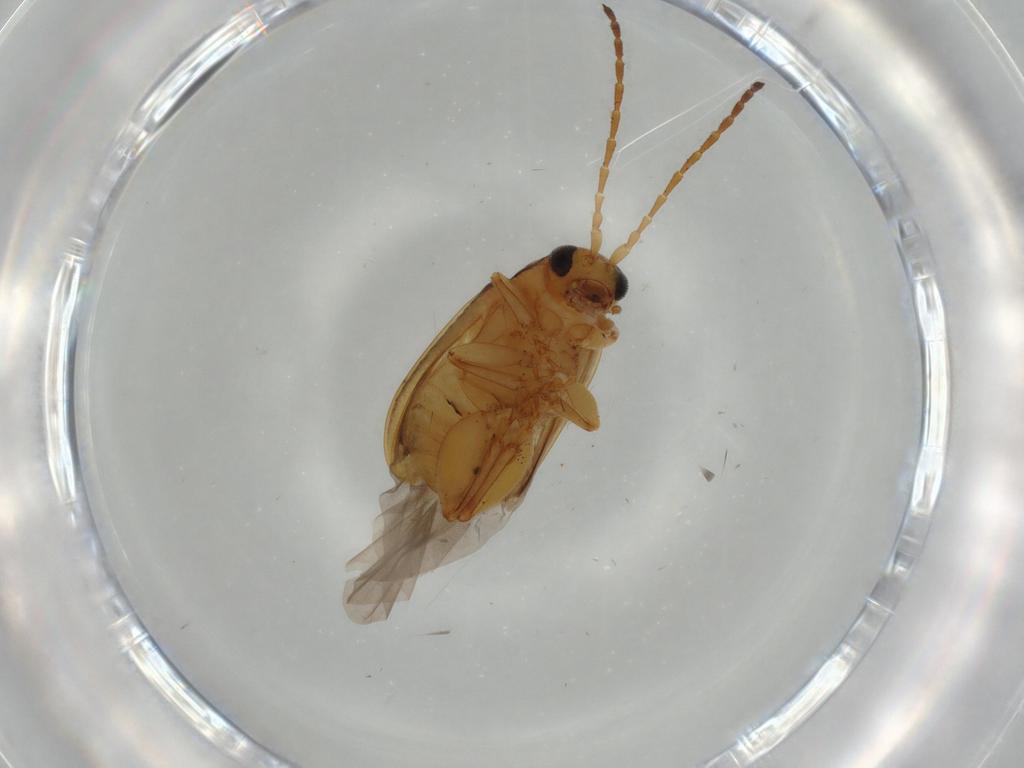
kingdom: Animalia
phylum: Arthropoda
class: Insecta
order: Coleoptera
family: Chrysomelidae
